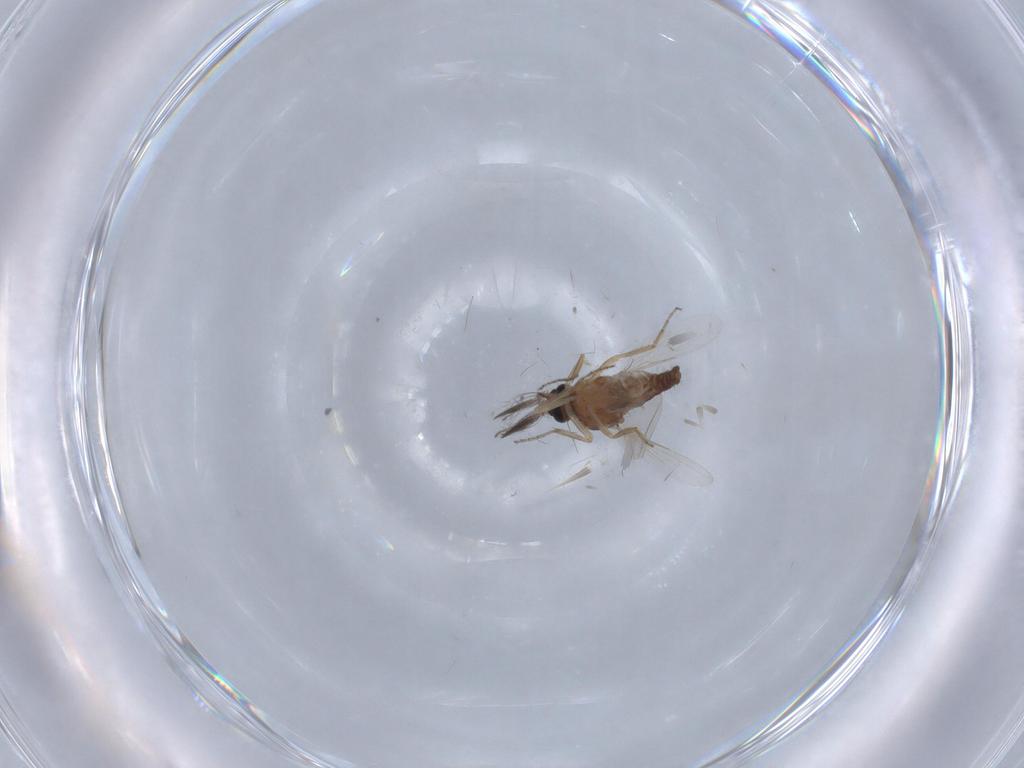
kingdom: Animalia
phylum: Arthropoda
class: Insecta
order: Diptera
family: Ceratopogonidae
